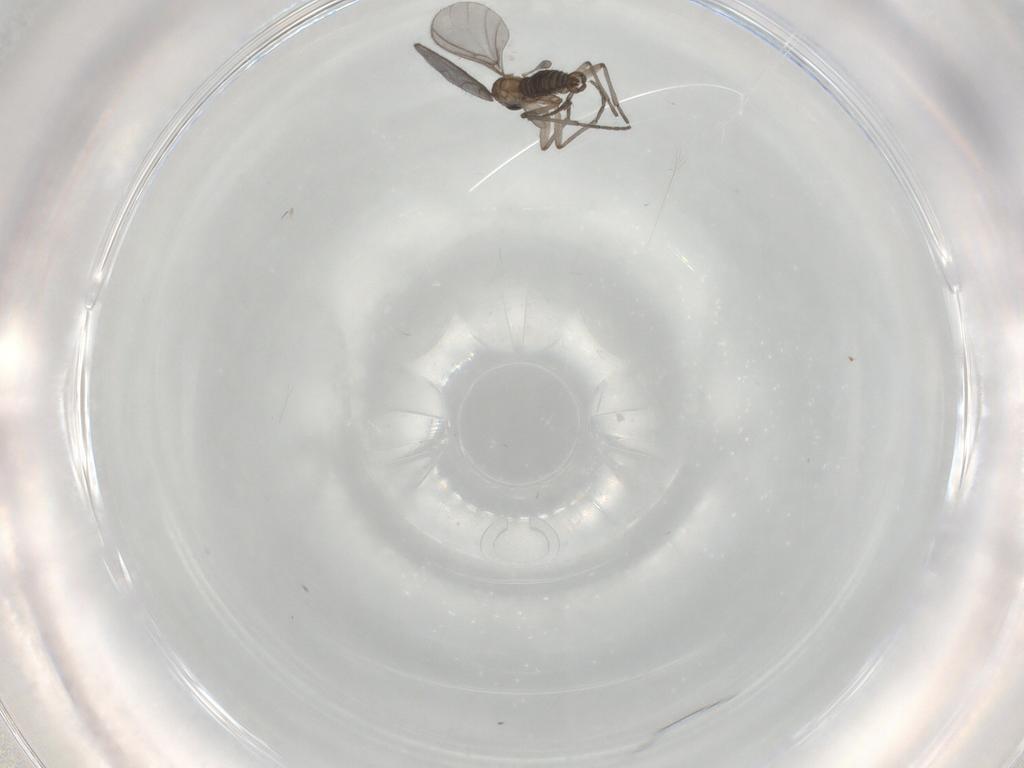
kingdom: Animalia
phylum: Arthropoda
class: Insecta
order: Diptera
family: Sciaridae
